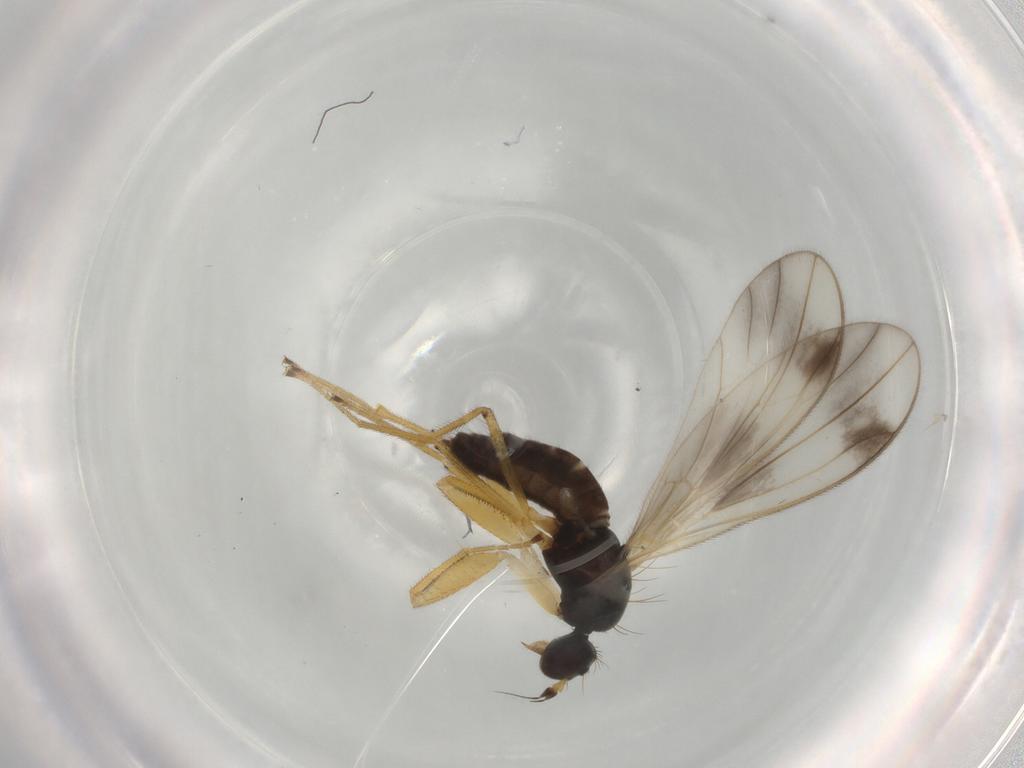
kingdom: Animalia
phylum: Arthropoda
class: Insecta
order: Diptera
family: Empididae
